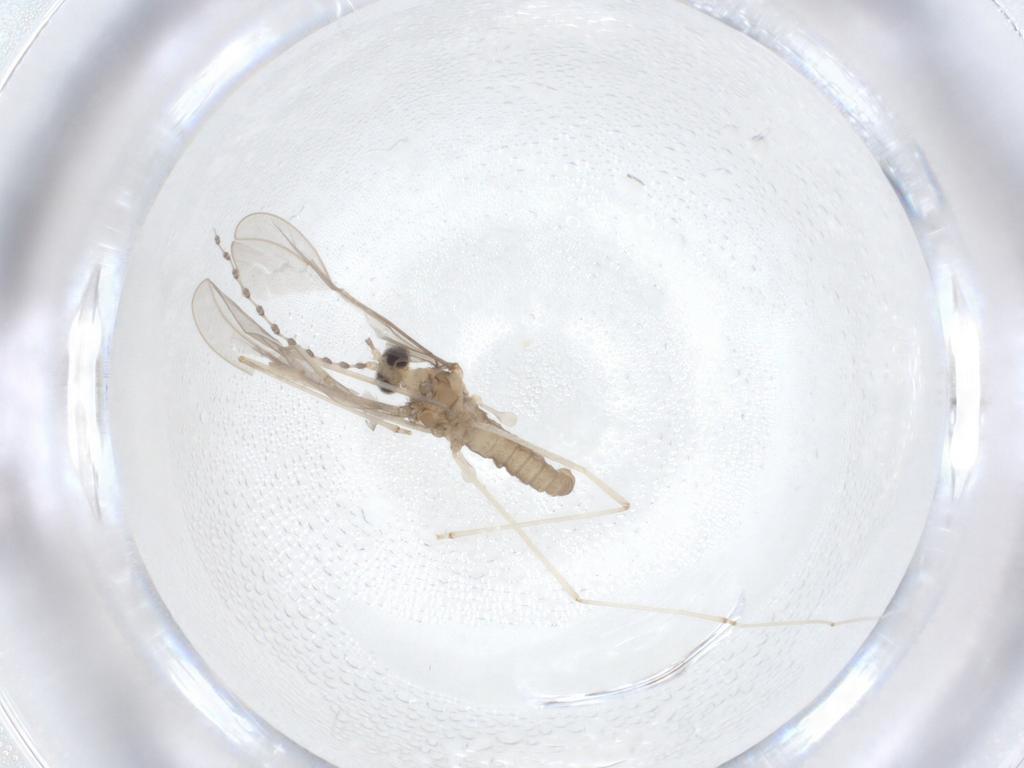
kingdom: Animalia
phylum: Arthropoda
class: Insecta
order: Diptera
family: Cecidomyiidae
